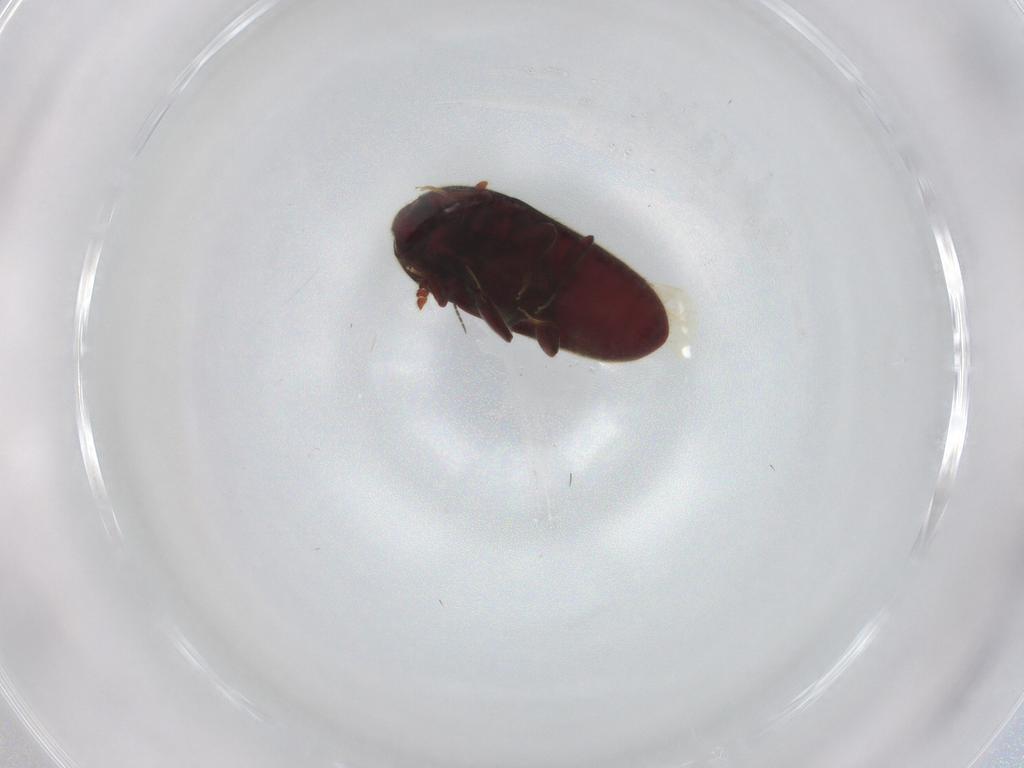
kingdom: Animalia
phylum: Arthropoda
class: Insecta
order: Coleoptera
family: Throscidae
